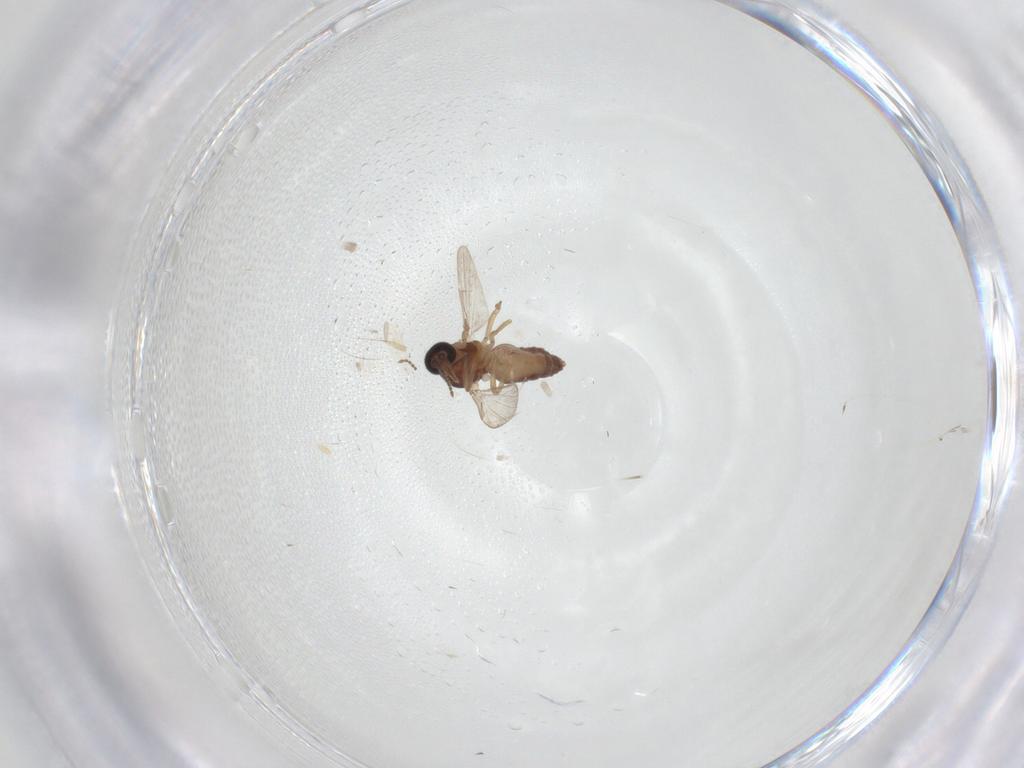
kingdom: Animalia
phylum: Arthropoda
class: Insecta
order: Diptera
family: Ceratopogonidae
